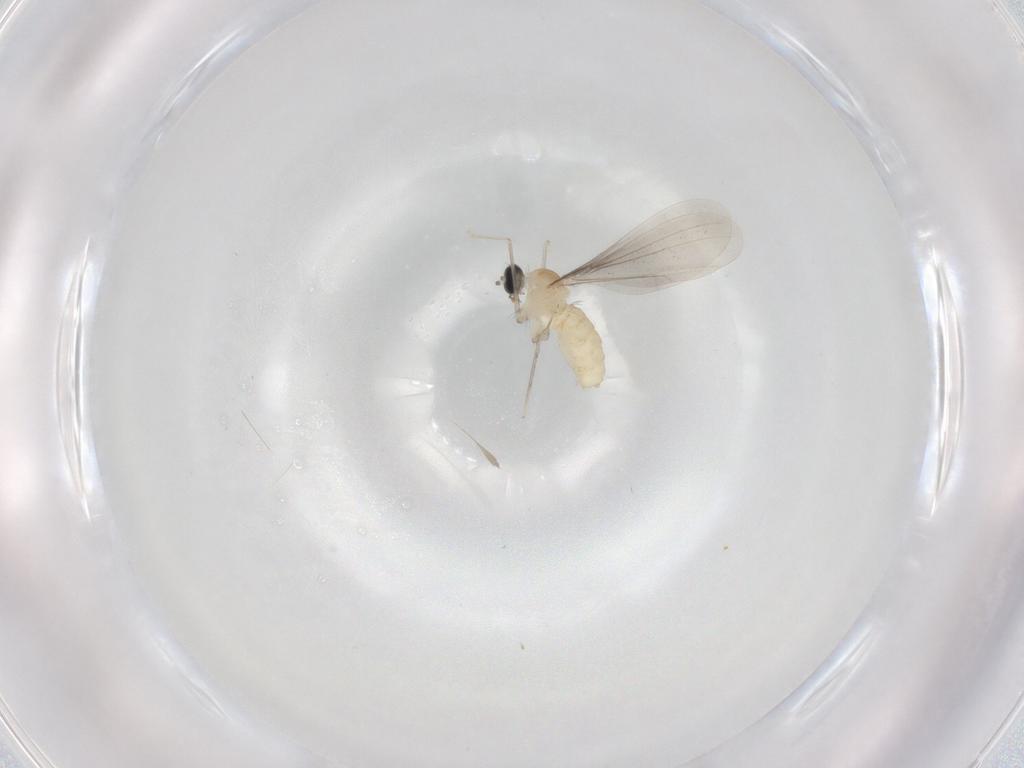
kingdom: Animalia
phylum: Arthropoda
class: Insecta
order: Diptera
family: Cecidomyiidae
